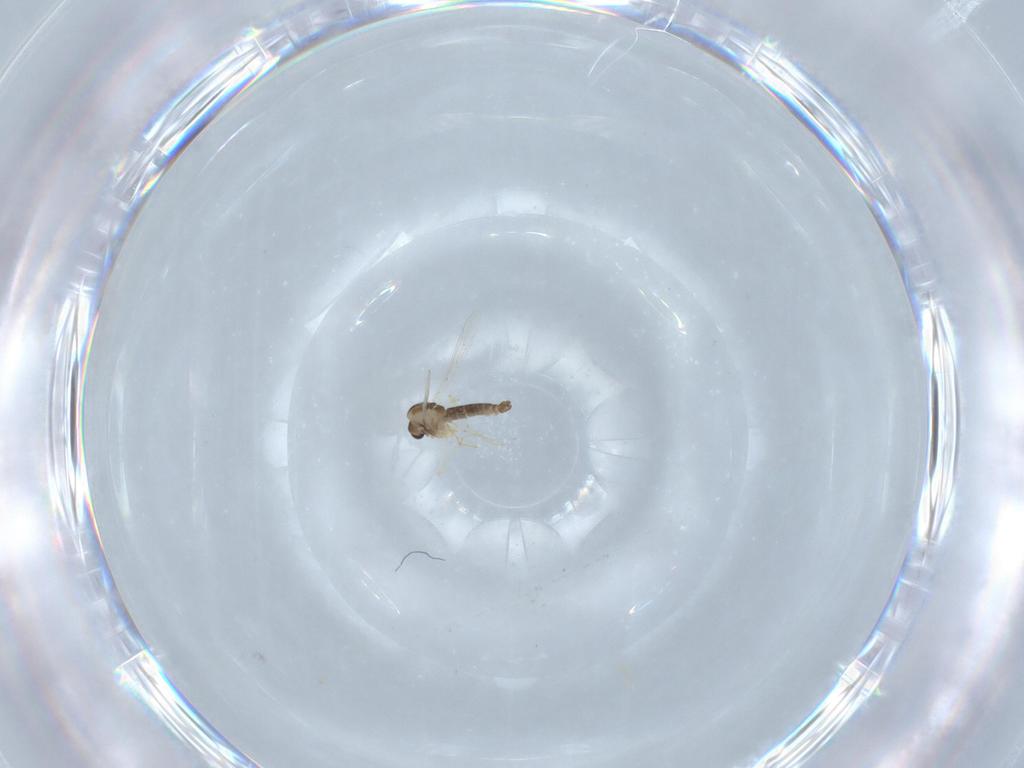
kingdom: Animalia
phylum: Arthropoda
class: Insecta
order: Diptera
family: Chironomidae
